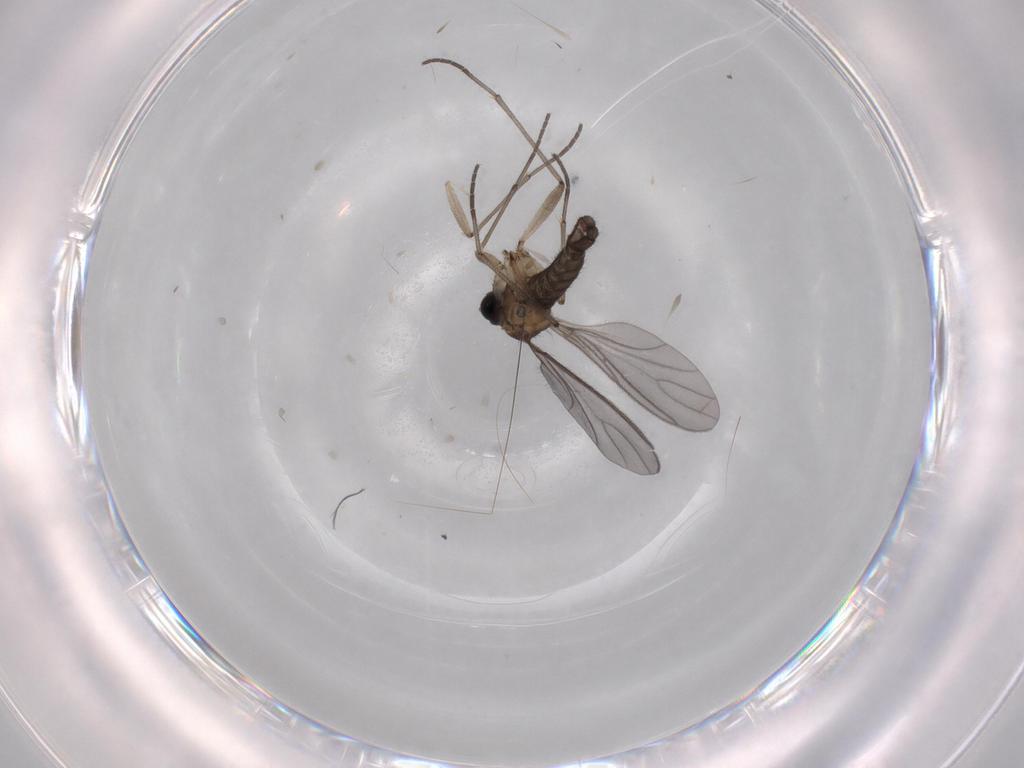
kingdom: Animalia
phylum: Arthropoda
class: Insecta
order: Diptera
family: Sciaridae
